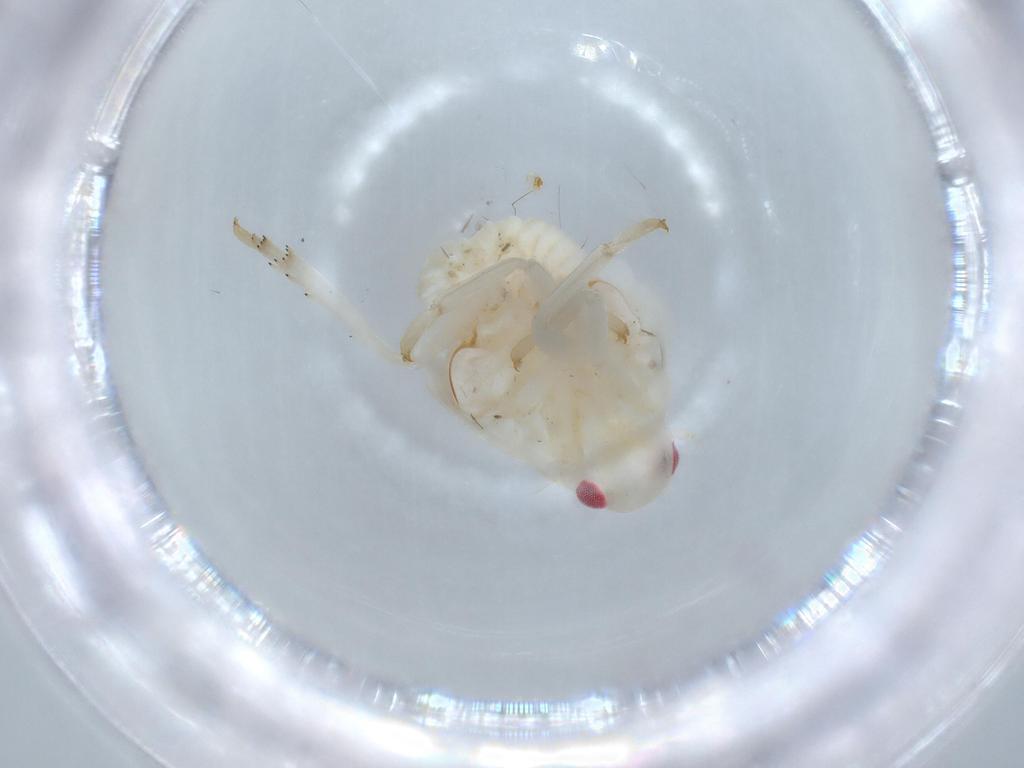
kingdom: Animalia
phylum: Arthropoda
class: Insecta
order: Hemiptera
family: Flatidae
